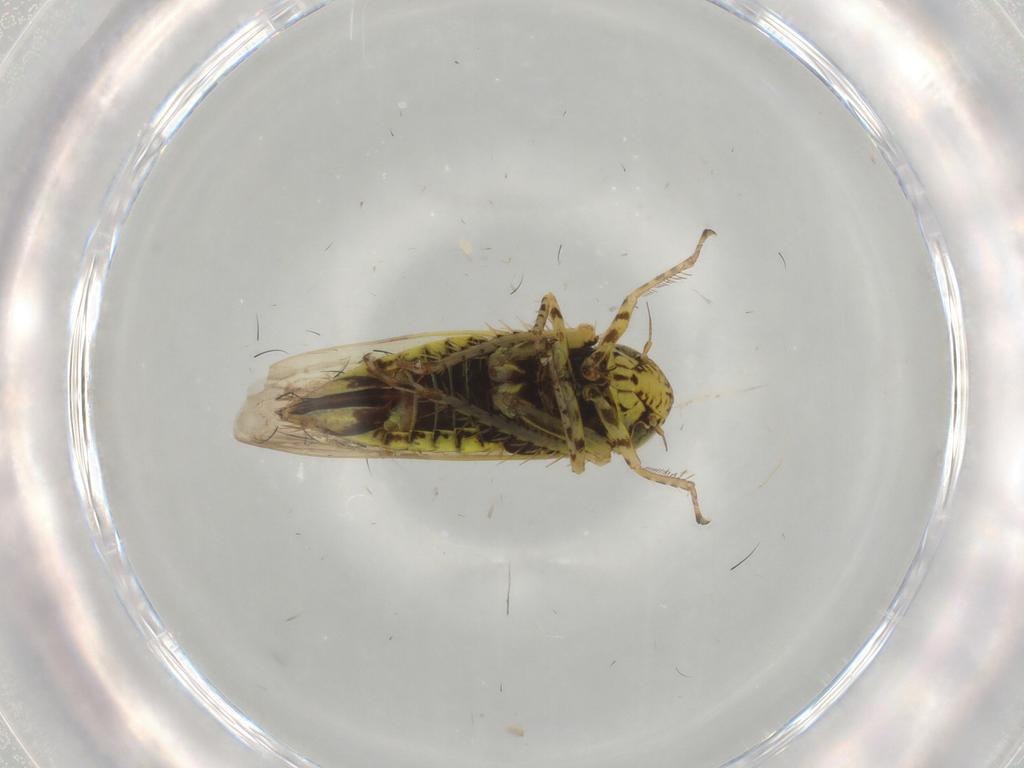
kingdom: Animalia
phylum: Arthropoda
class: Insecta
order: Hemiptera
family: Cicadellidae
